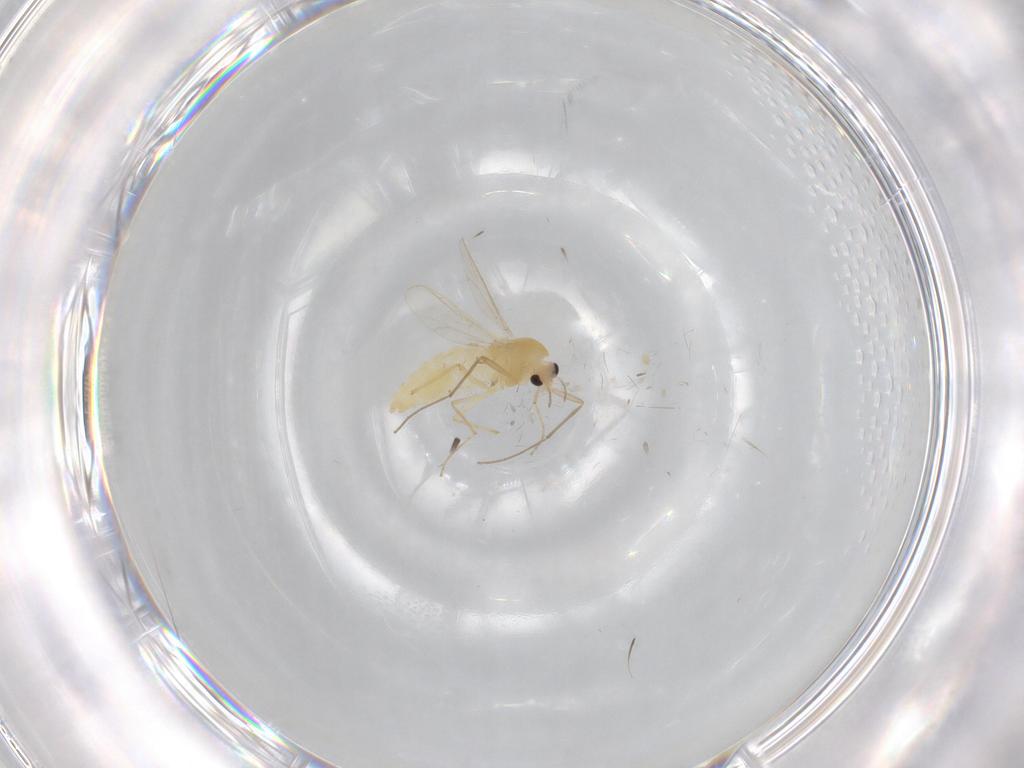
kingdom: Animalia
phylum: Arthropoda
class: Insecta
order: Diptera
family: Chironomidae
